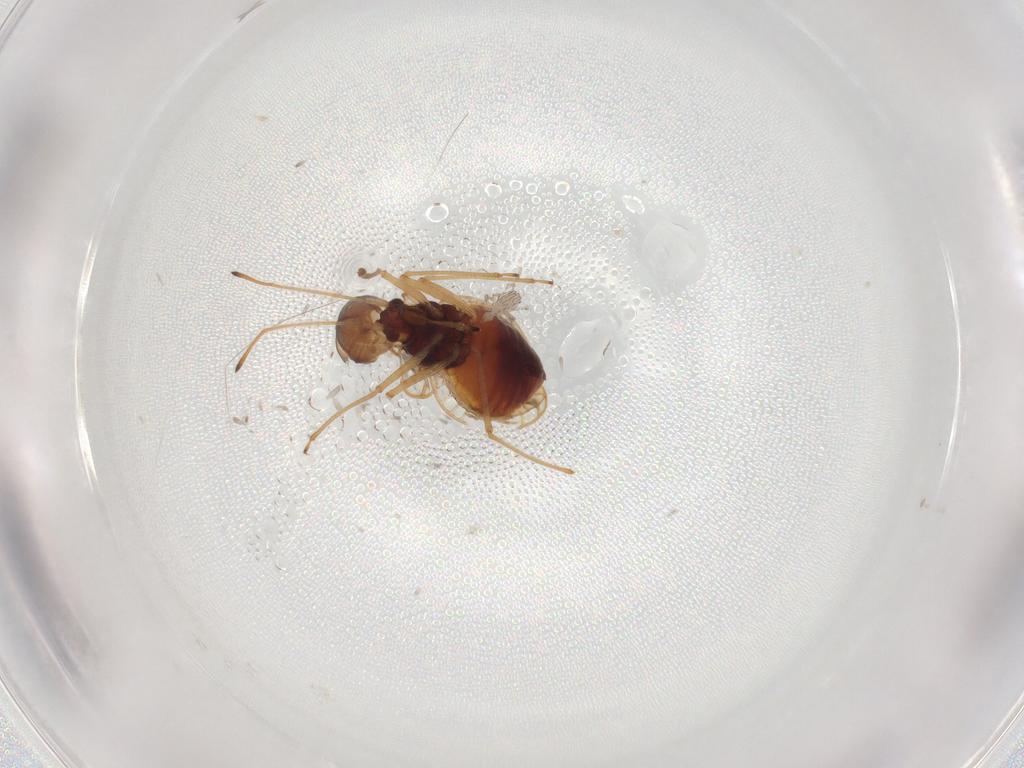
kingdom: Animalia
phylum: Arthropoda
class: Insecta
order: Hemiptera
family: Tingidae
